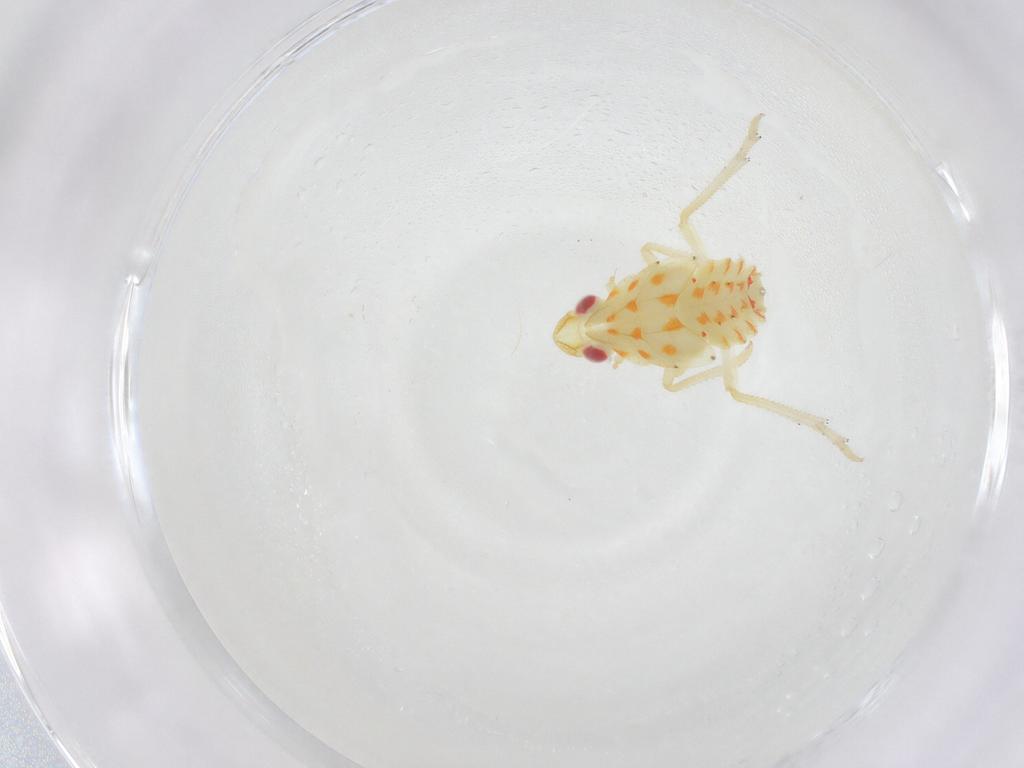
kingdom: Animalia
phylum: Arthropoda
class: Insecta
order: Hemiptera
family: Tropiduchidae
